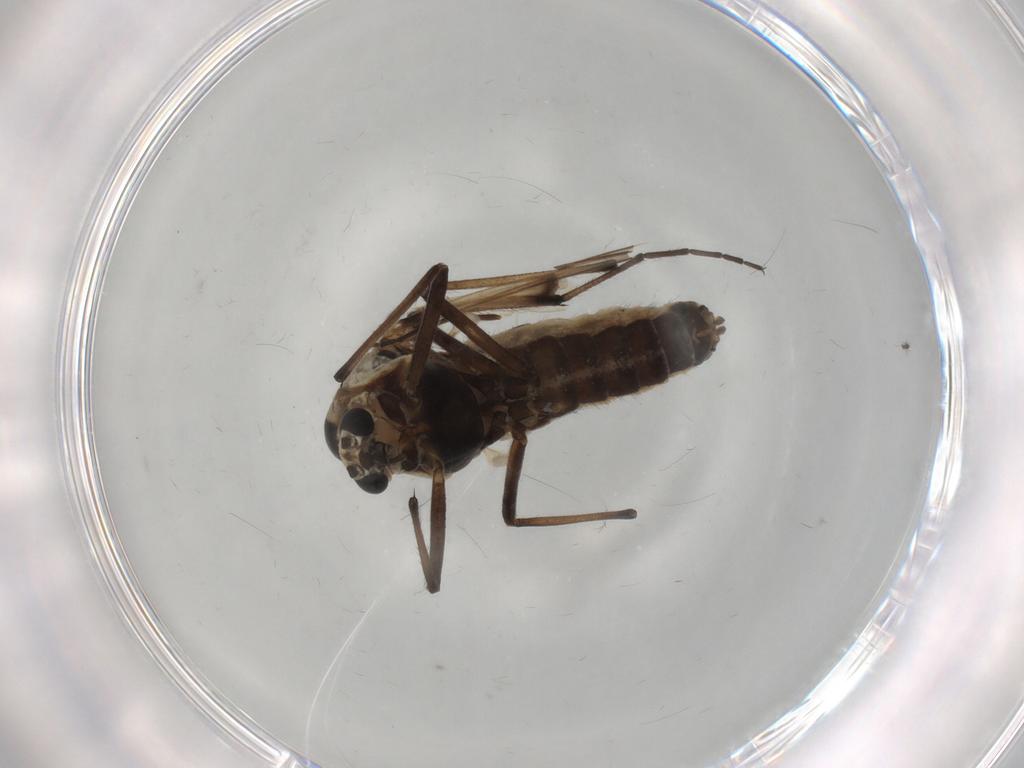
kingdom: Animalia
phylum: Arthropoda
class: Insecta
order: Diptera
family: Chironomidae
